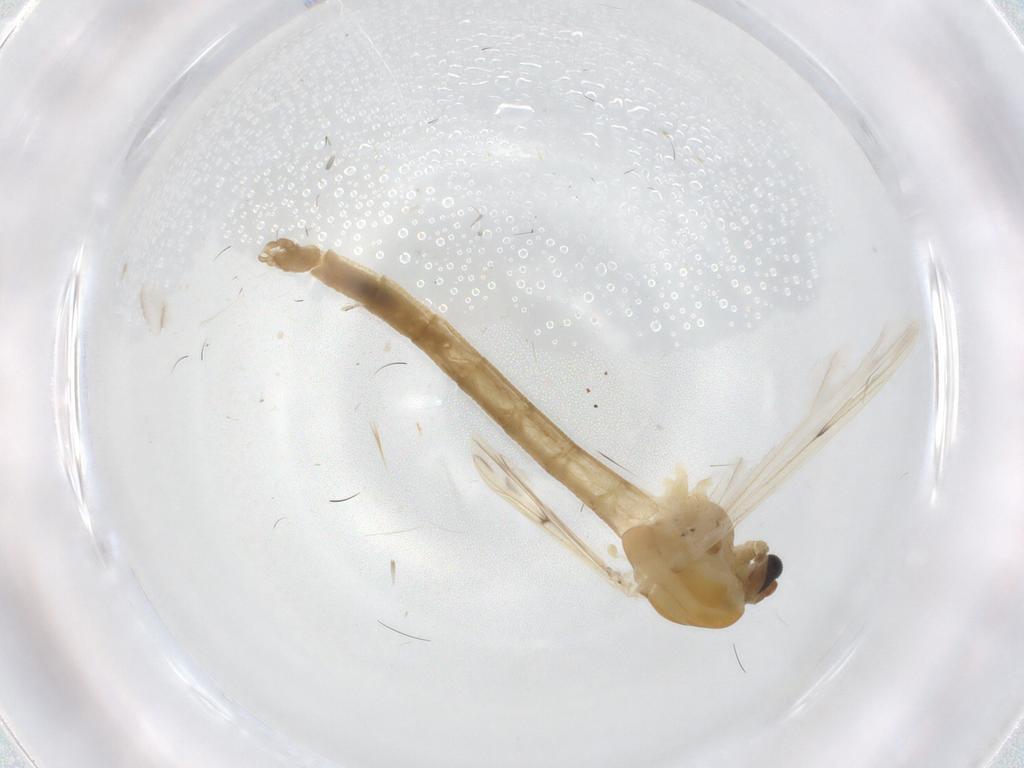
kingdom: Animalia
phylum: Arthropoda
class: Insecta
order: Diptera
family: Chironomidae
